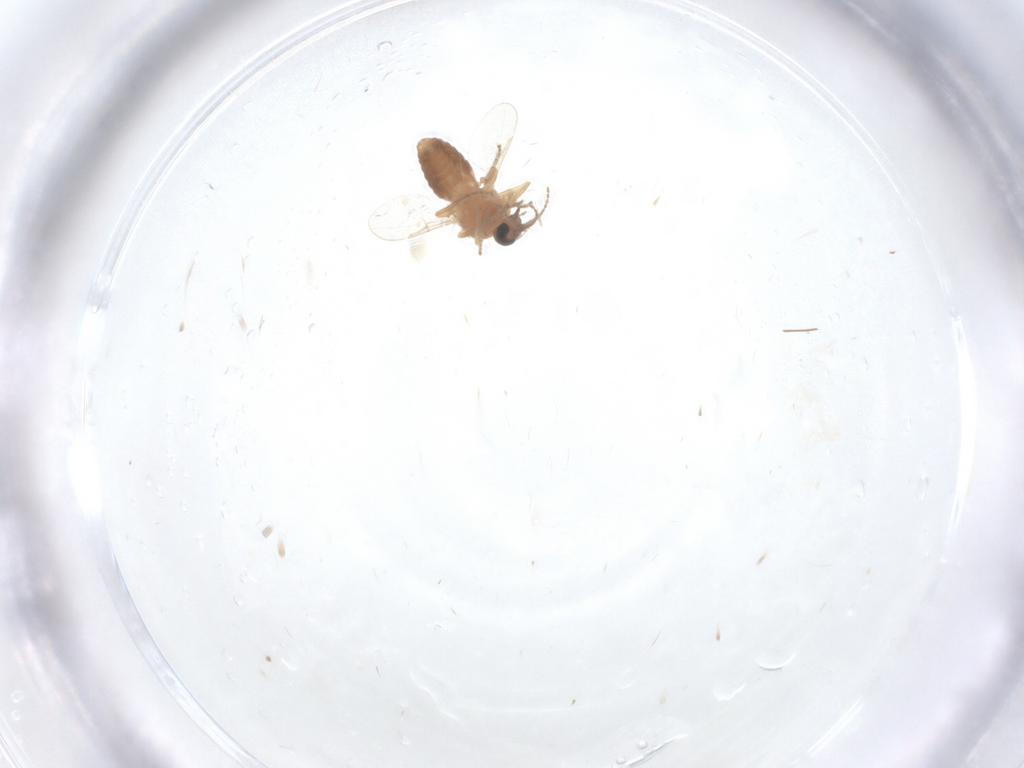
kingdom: Animalia
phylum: Arthropoda
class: Insecta
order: Diptera
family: Ceratopogonidae
